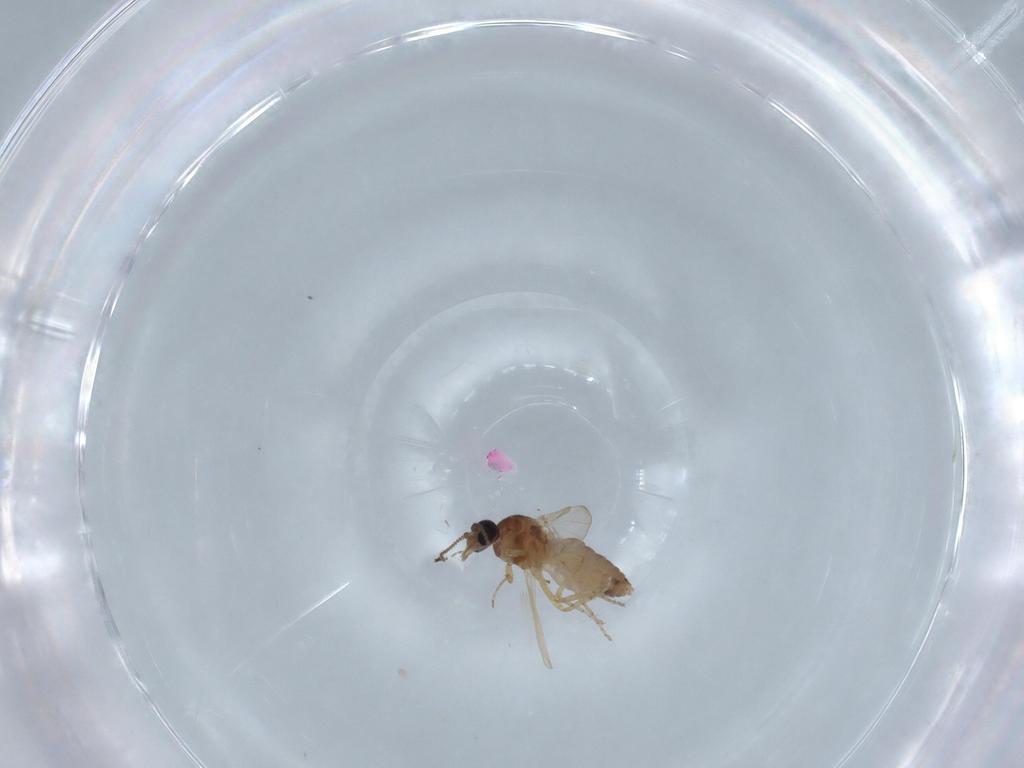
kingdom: Animalia
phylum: Arthropoda
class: Insecta
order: Diptera
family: Ceratopogonidae
